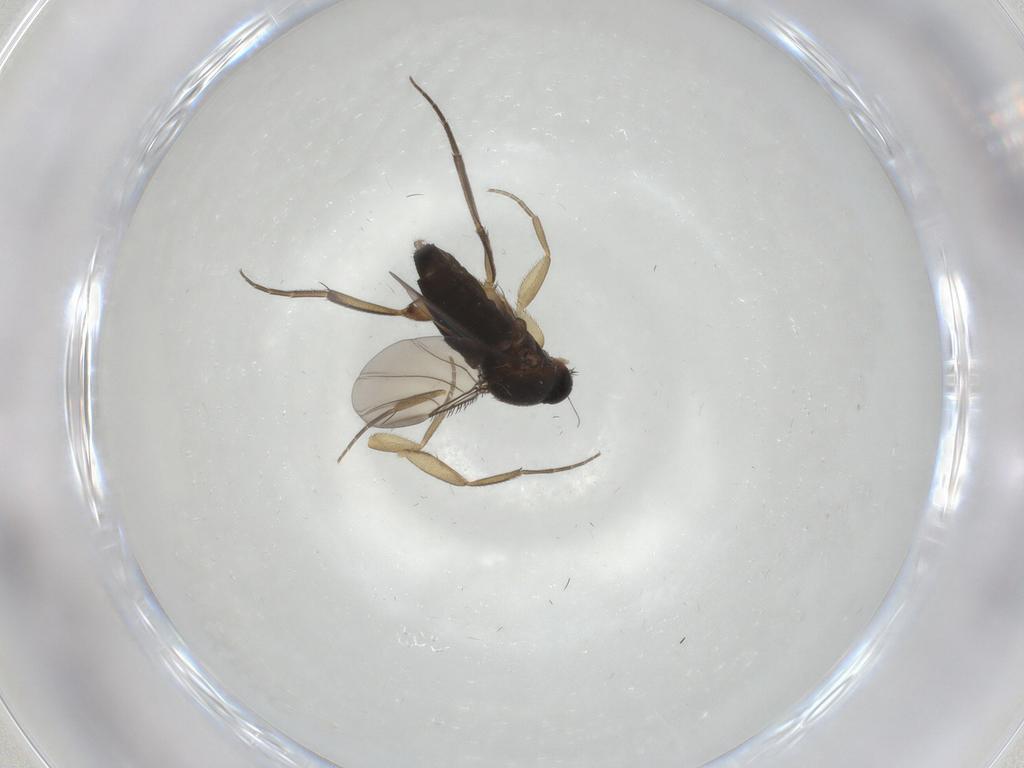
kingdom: Animalia
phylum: Arthropoda
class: Insecta
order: Diptera
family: Phoridae
